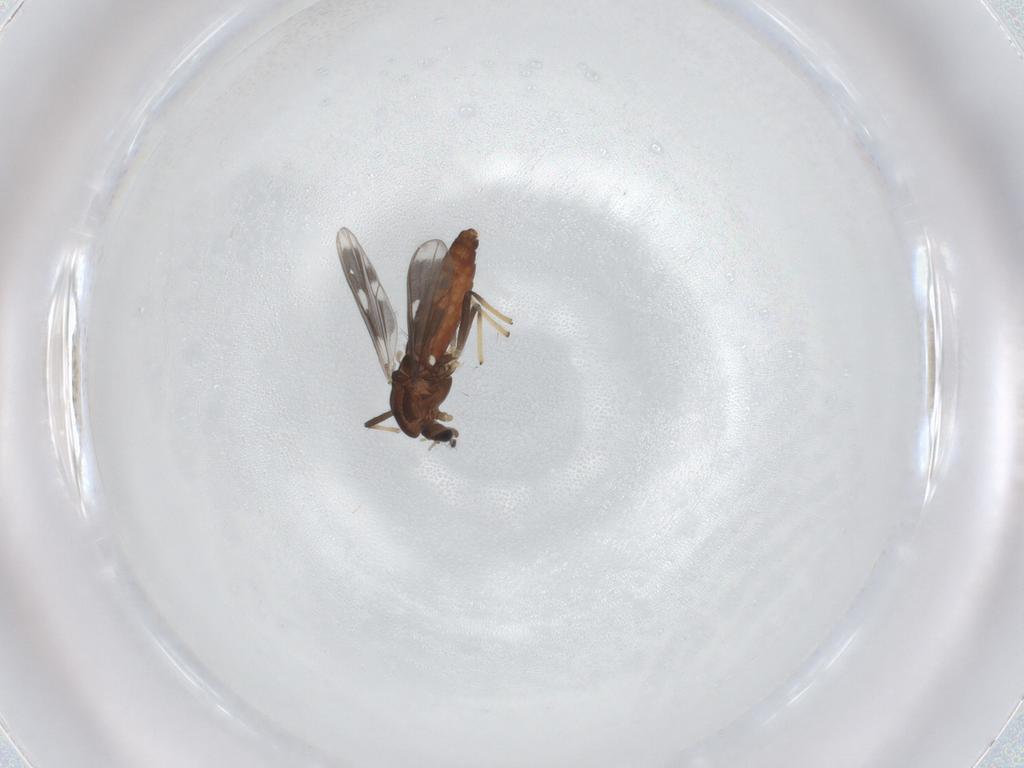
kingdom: Animalia
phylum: Arthropoda
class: Insecta
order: Diptera
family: Chironomidae
